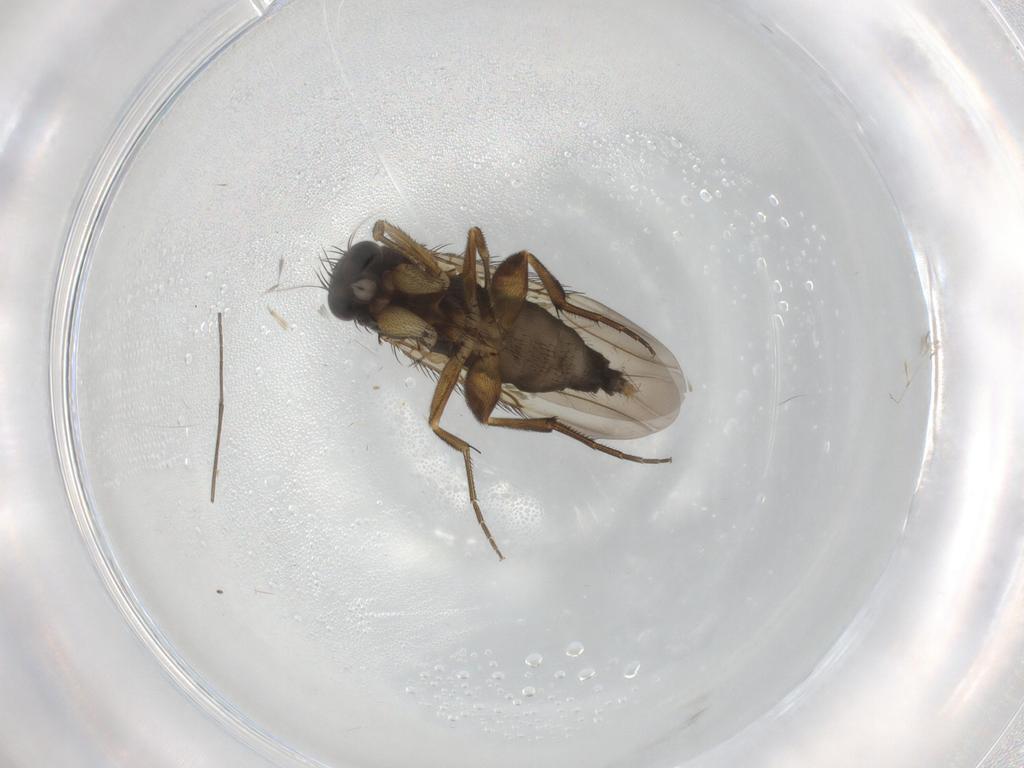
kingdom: Animalia
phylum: Arthropoda
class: Insecta
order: Diptera
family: Phoridae
